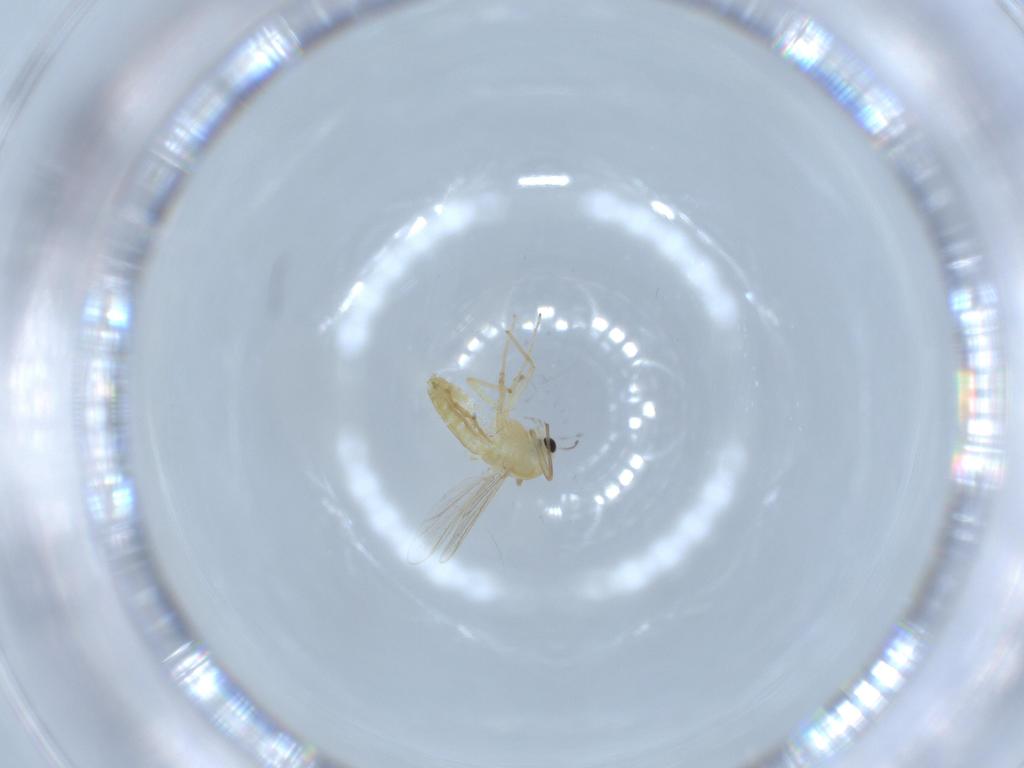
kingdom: Animalia
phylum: Arthropoda
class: Insecta
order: Diptera
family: Chironomidae
